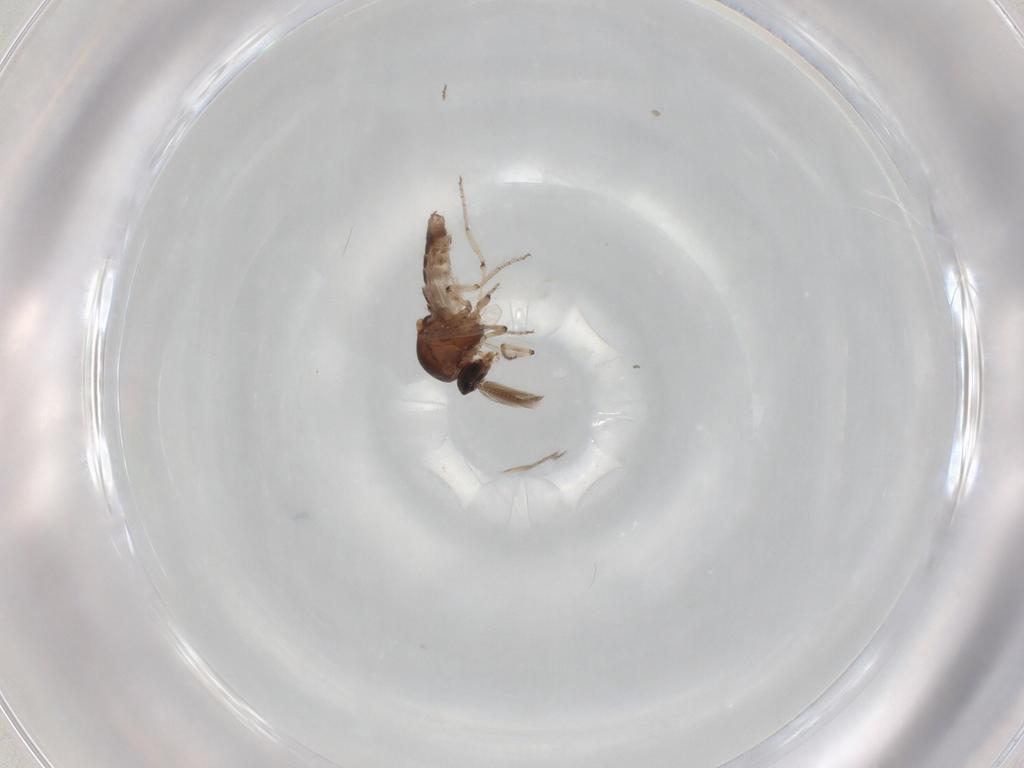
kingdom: Animalia
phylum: Arthropoda
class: Insecta
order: Diptera
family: Ceratopogonidae
